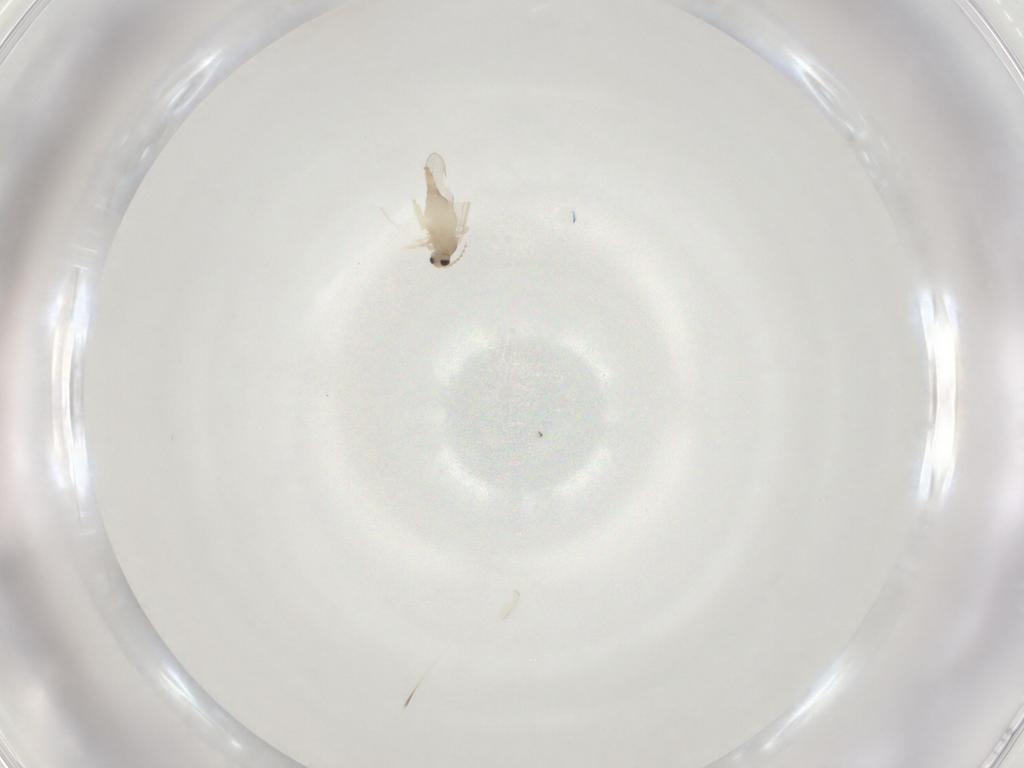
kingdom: Animalia
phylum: Arthropoda
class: Insecta
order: Diptera
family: Cecidomyiidae
